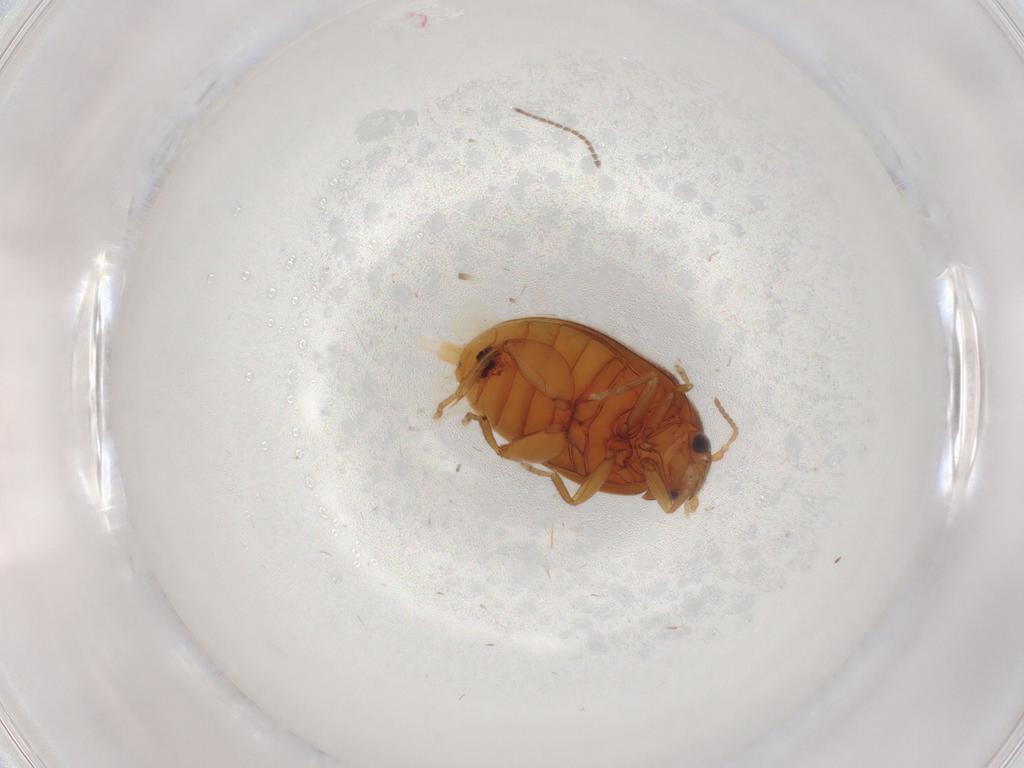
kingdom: Animalia
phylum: Arthropoda
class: Insecta
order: Coleoptera
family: Scirtidae
